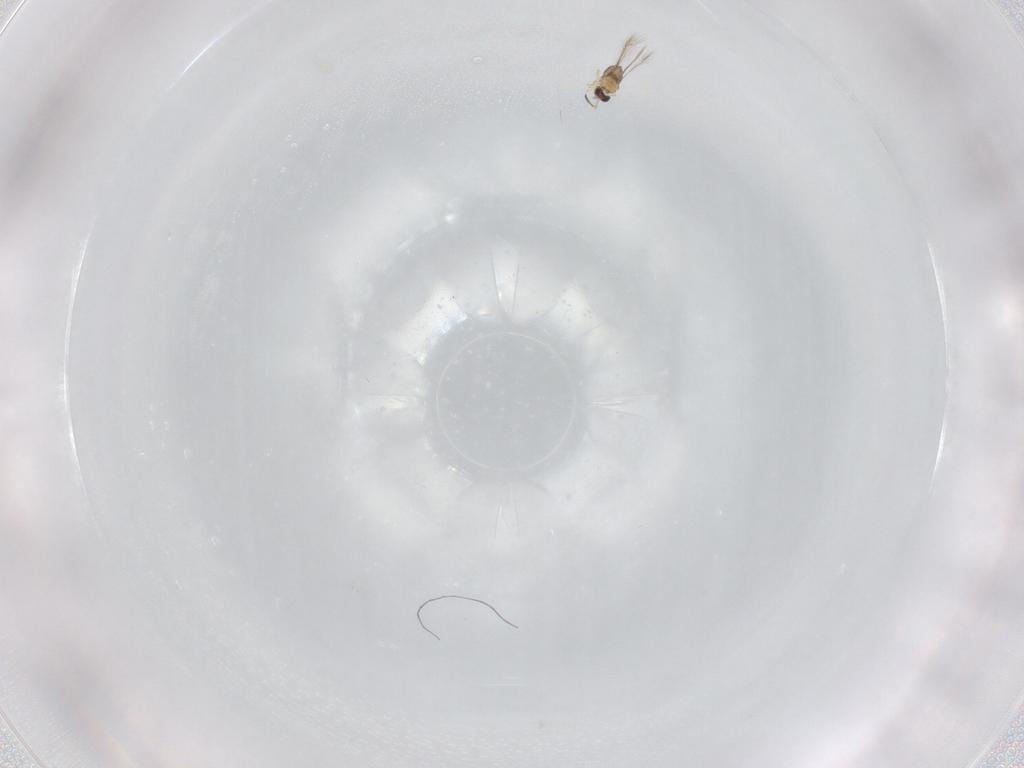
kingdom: Animalia
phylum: Arthropoda
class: Insecta
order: Hymenoptera
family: Mymaridae
